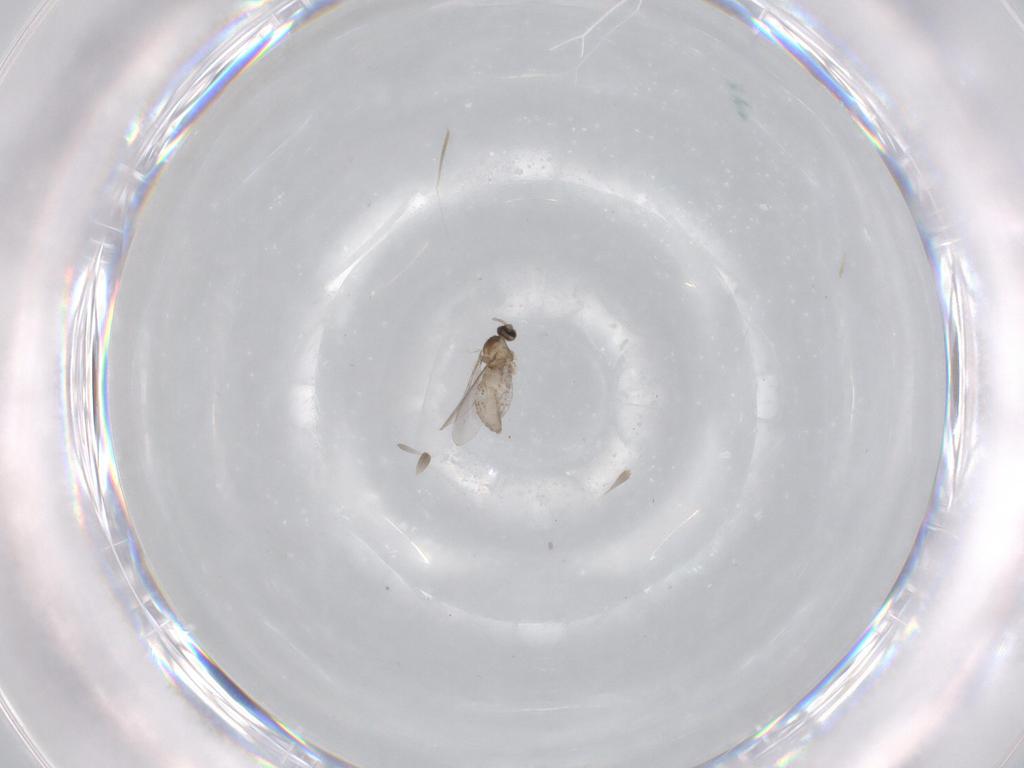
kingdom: Animalia
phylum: Arthropoda
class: Insecta
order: Diptera
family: Cecidomyiidae
